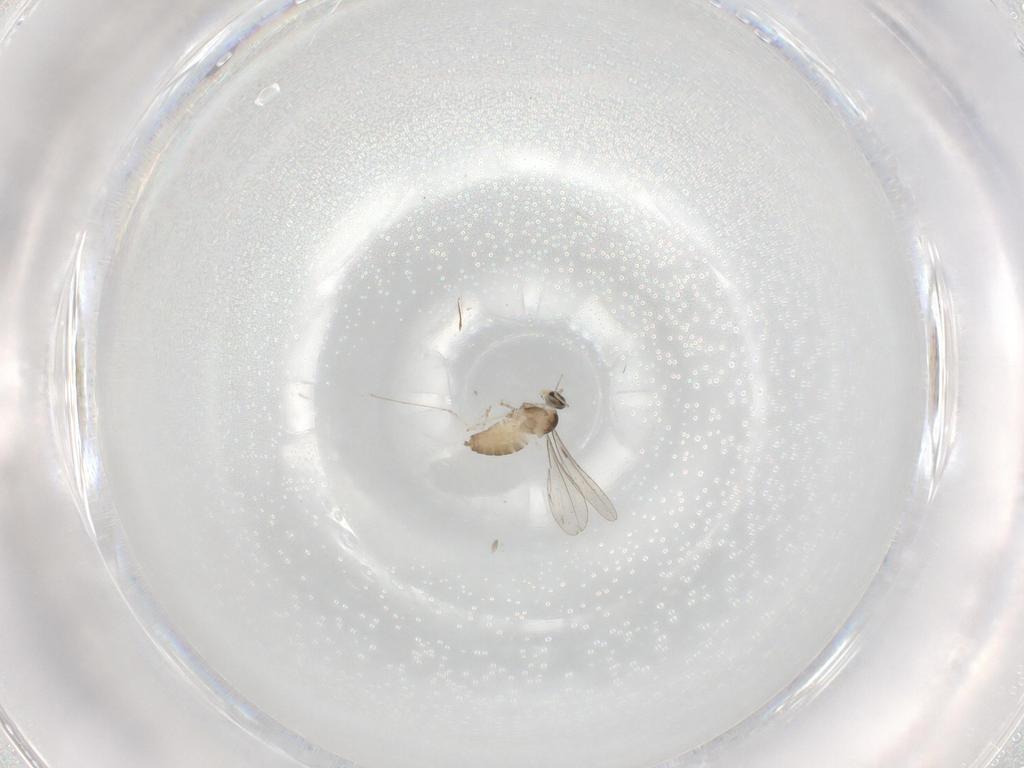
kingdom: Animalia
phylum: Arthropoda
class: Insecta
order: Diptera
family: Cecidomyiidae
